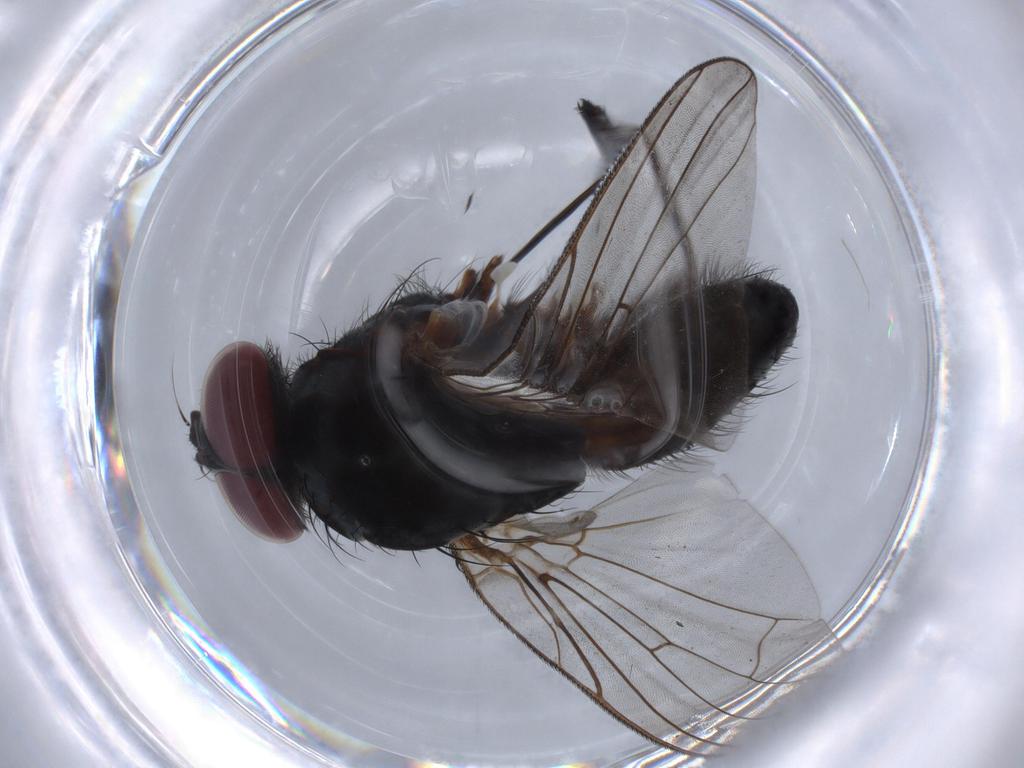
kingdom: Animalia
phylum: Arthropoda
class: Insecta
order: Diptera
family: Chironomidae
